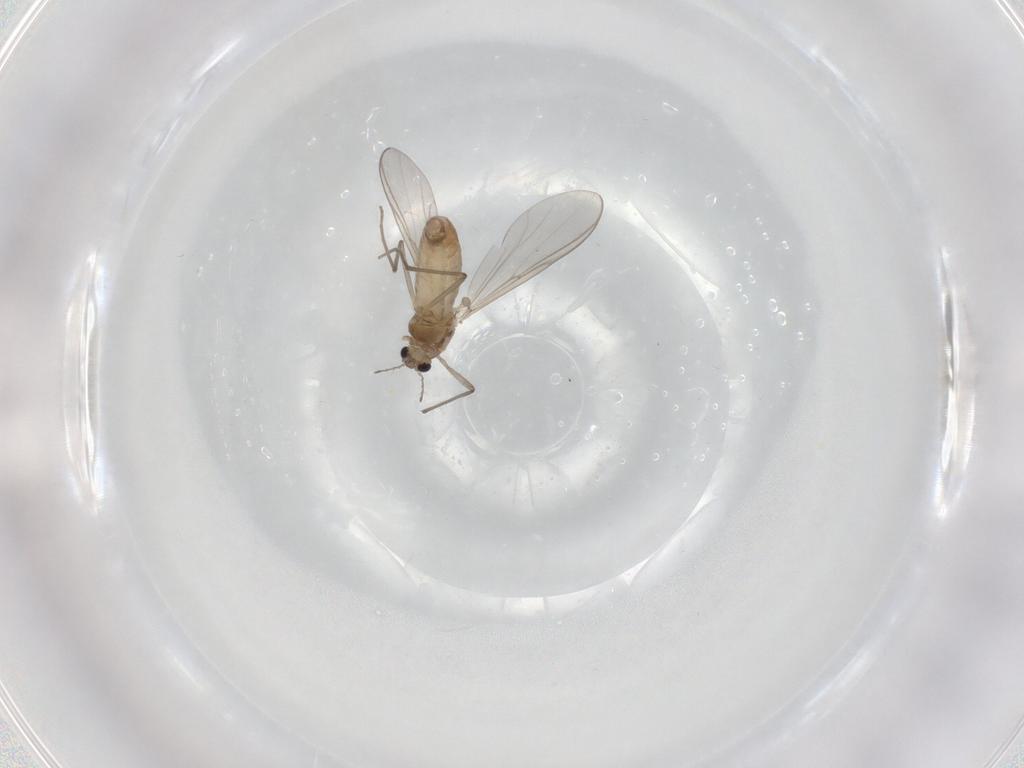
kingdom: Animalia
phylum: Arthropoda
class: Insecta
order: Diptera
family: Chironomidae
